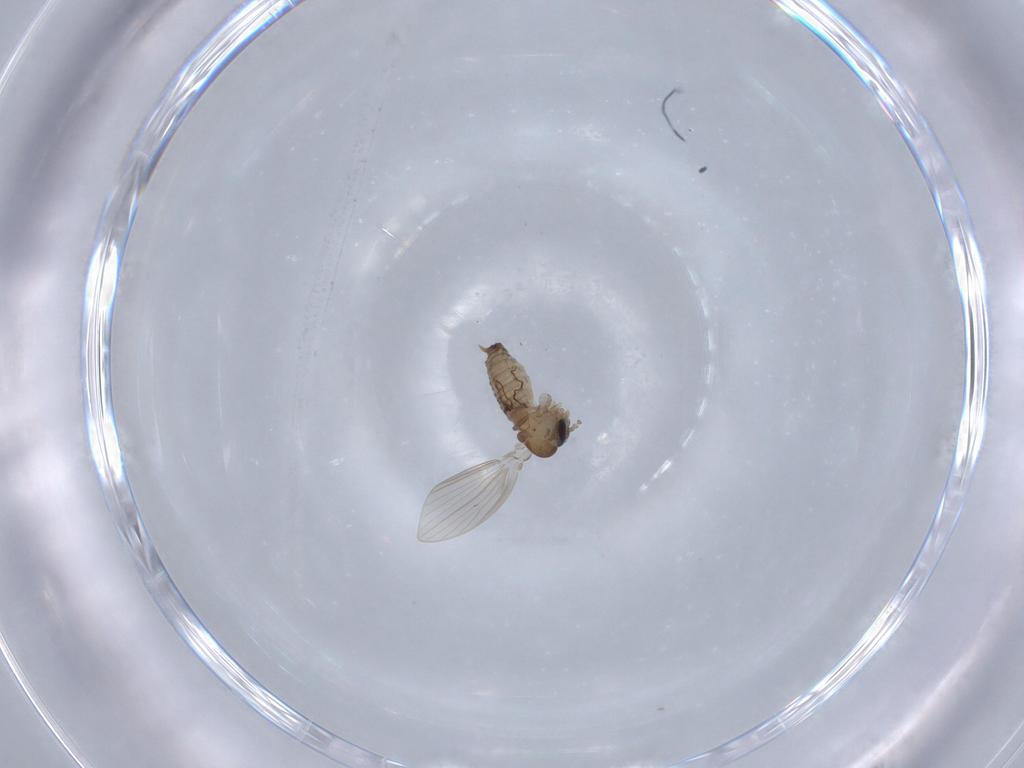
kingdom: Animalia
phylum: Arthropoda
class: Insecta
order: Diptera
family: Psychodidae
